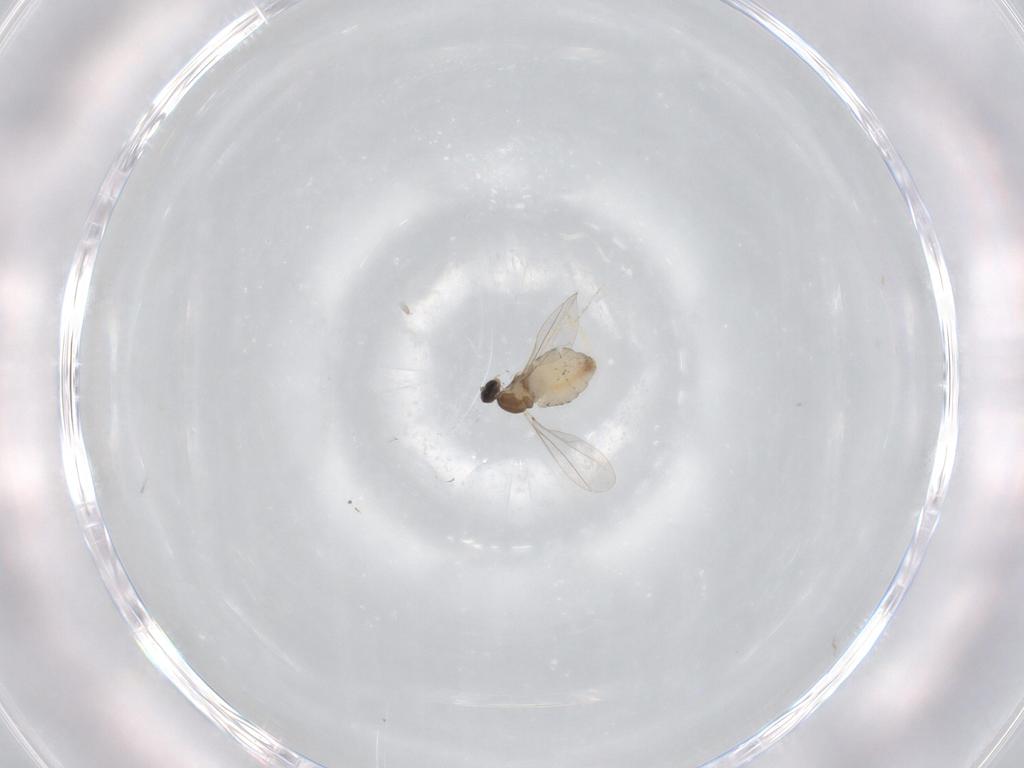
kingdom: Animalia
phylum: Arthropoda
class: Insecta
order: Diptera
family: Cecidomyiidae
